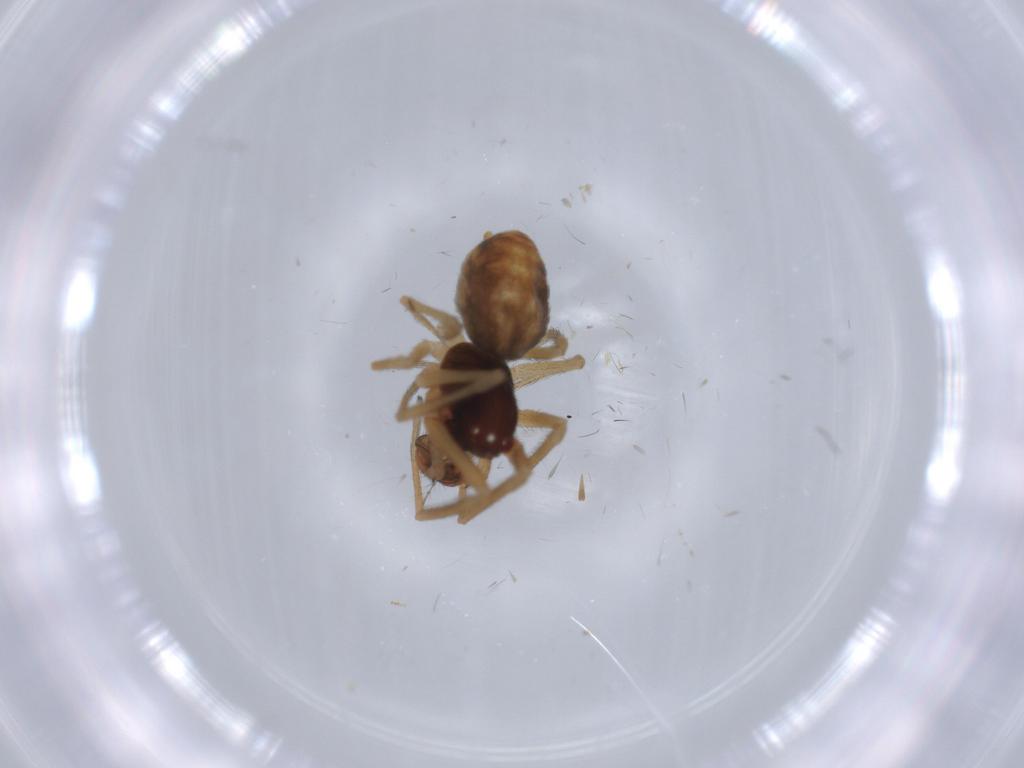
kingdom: Animalia
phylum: Arthropoda
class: Arachnida
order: Araneae
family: Dictynidae
